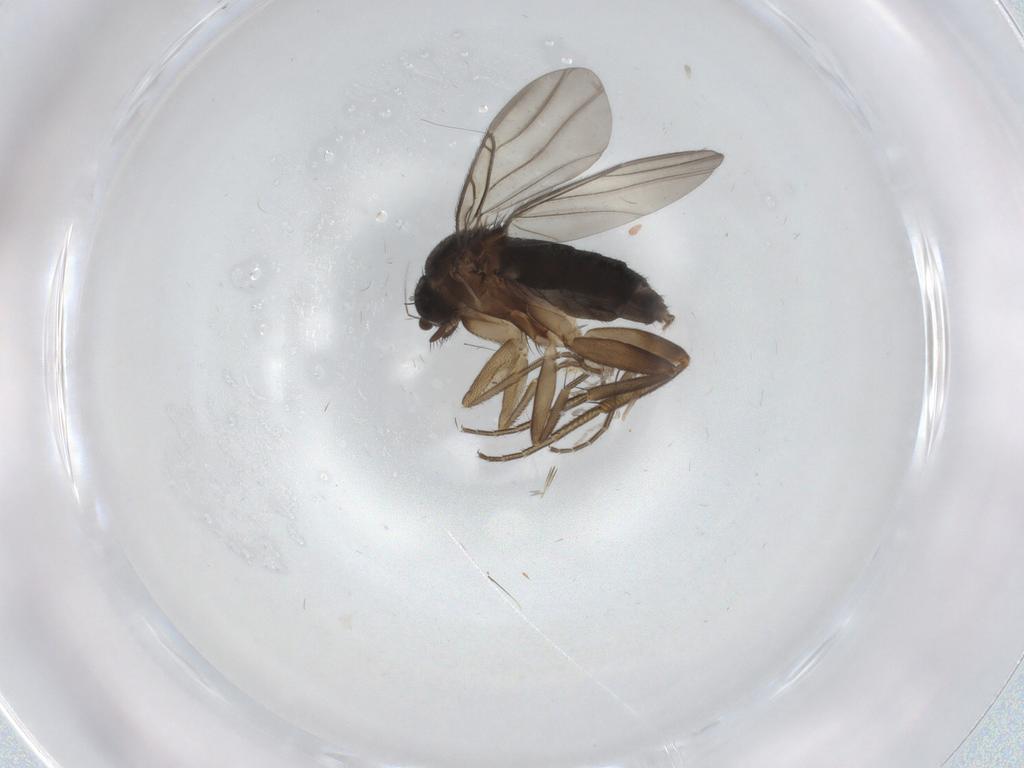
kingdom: Animalia
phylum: Arthropoda
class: Insecta
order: Diptera
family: Phoridae
